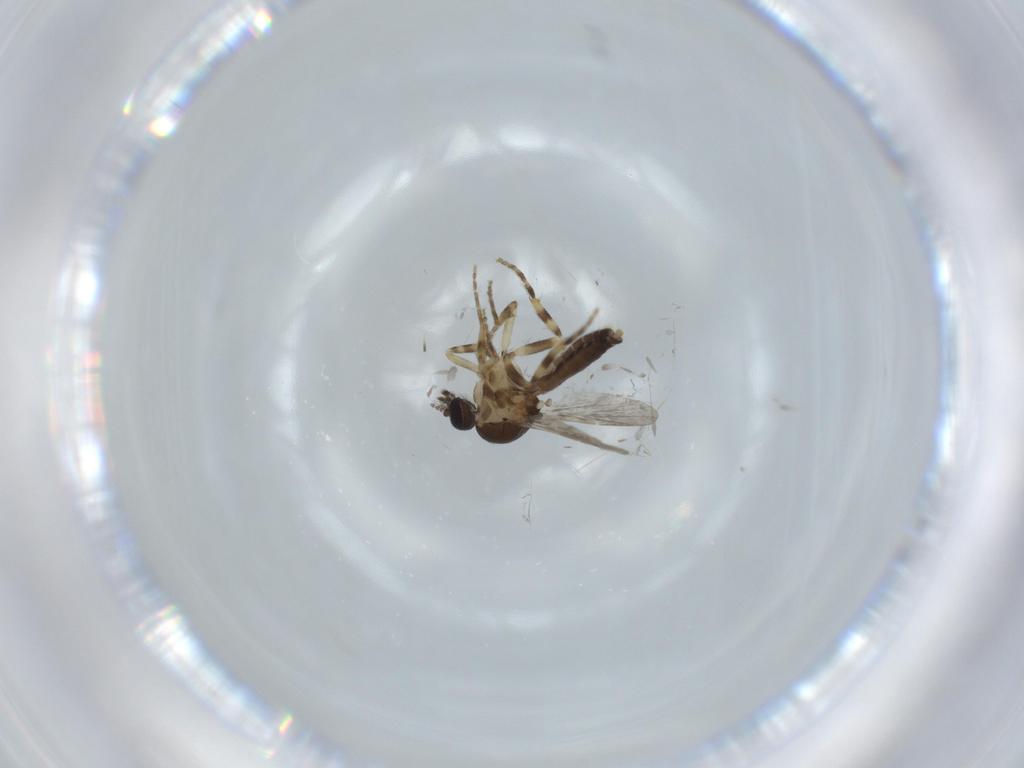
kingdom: Animalia
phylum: Arthropoda
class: Insecta
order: Diptera
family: Ceratopogonidae
